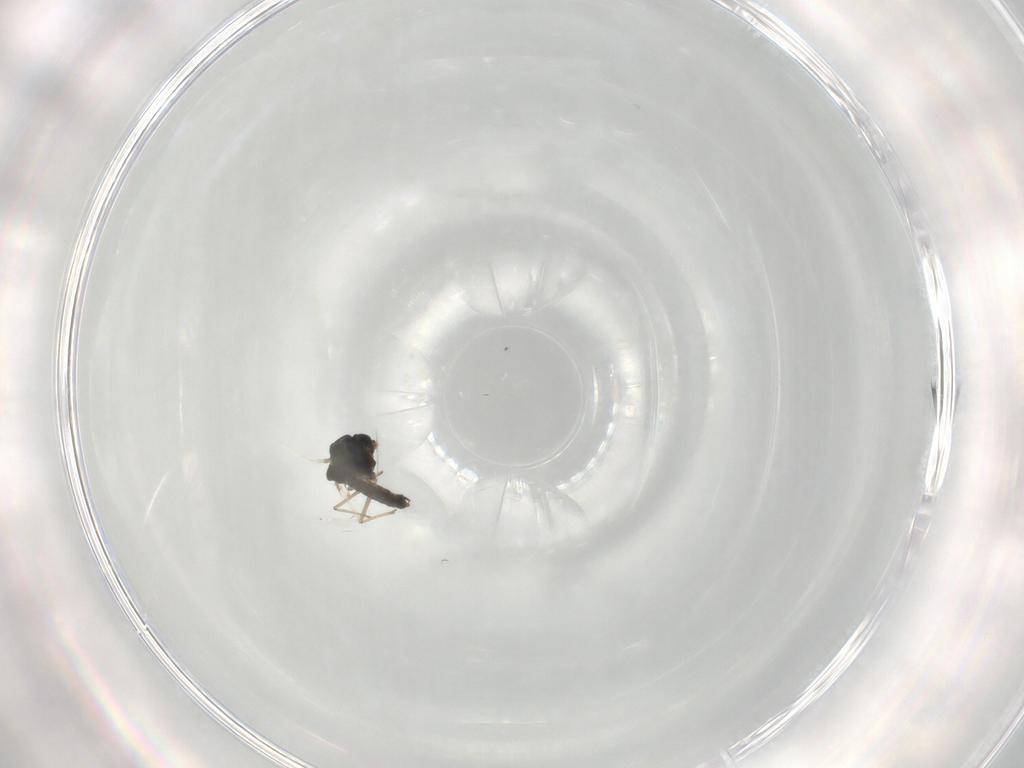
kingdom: Animalia
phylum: Arthropoda
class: Insecta
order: Diptera
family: Chironomidae
